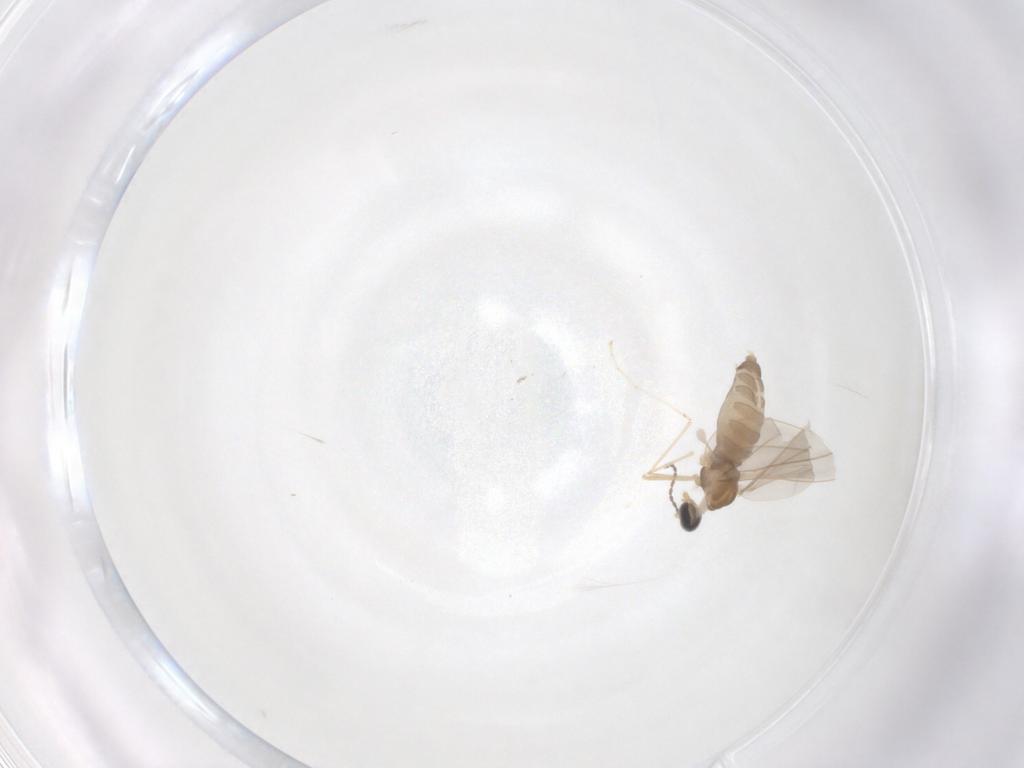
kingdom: Animalia
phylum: Arthropoda
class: Insecta
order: Diptera
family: Cecidomyiidae
